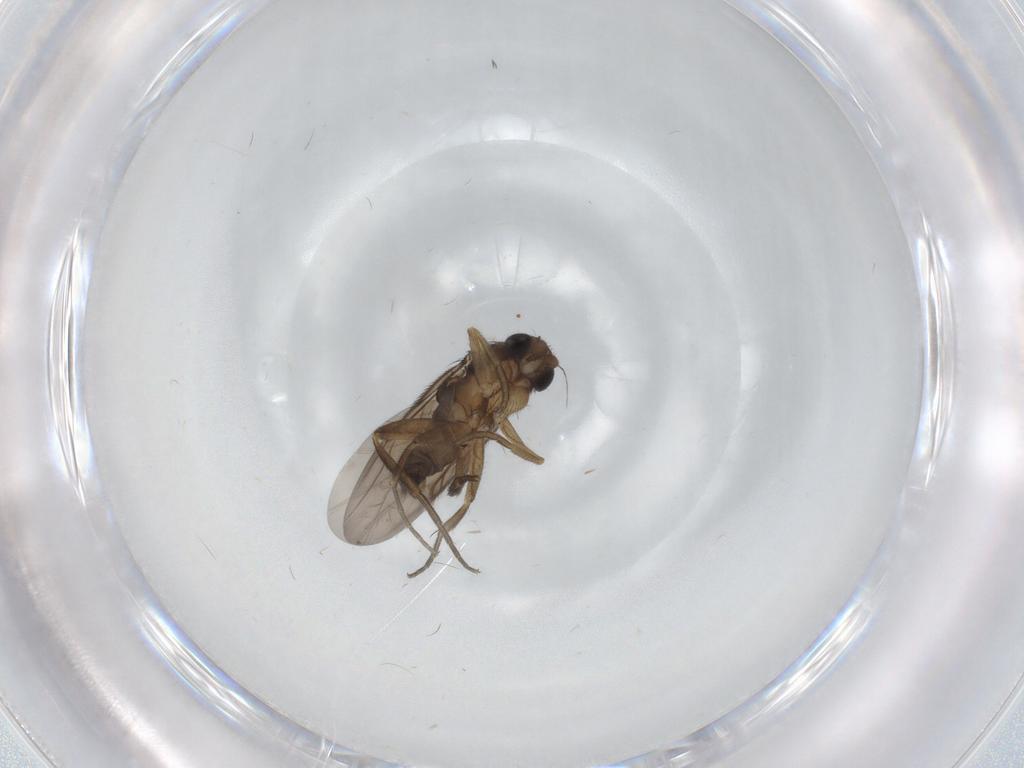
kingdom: Animalia
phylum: Arthropoda
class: Insecta
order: Diptera
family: Phoridae
